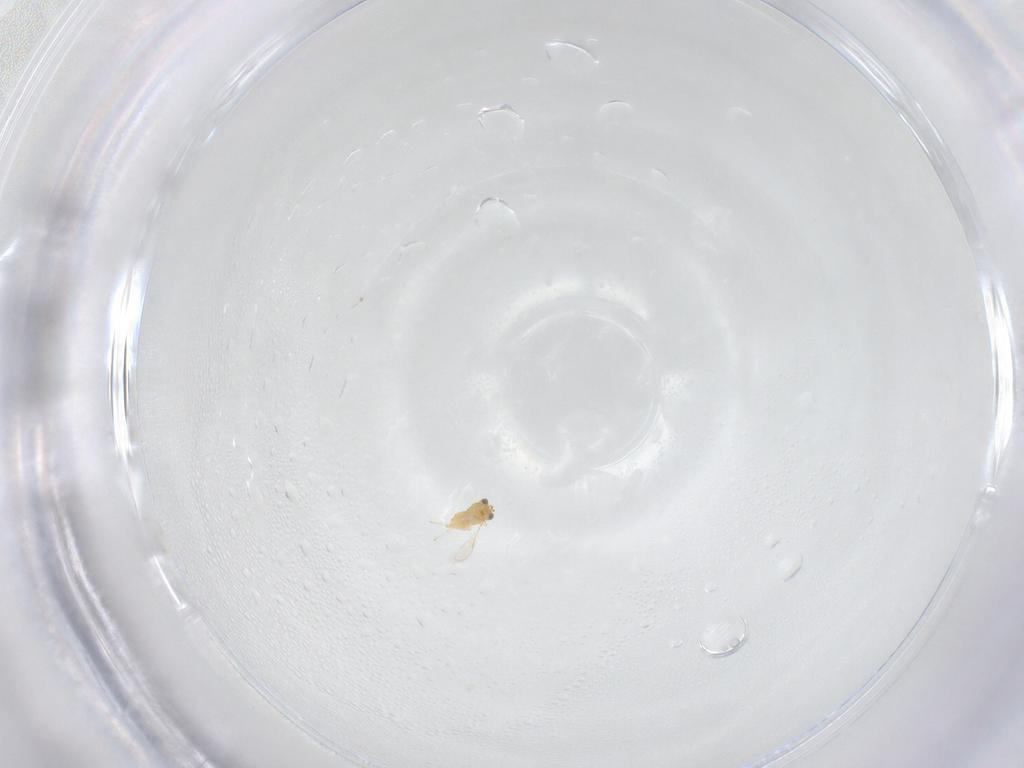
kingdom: Animalia
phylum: Arthropoda
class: Insecta
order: Hymenoptera
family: Aphelinidae
